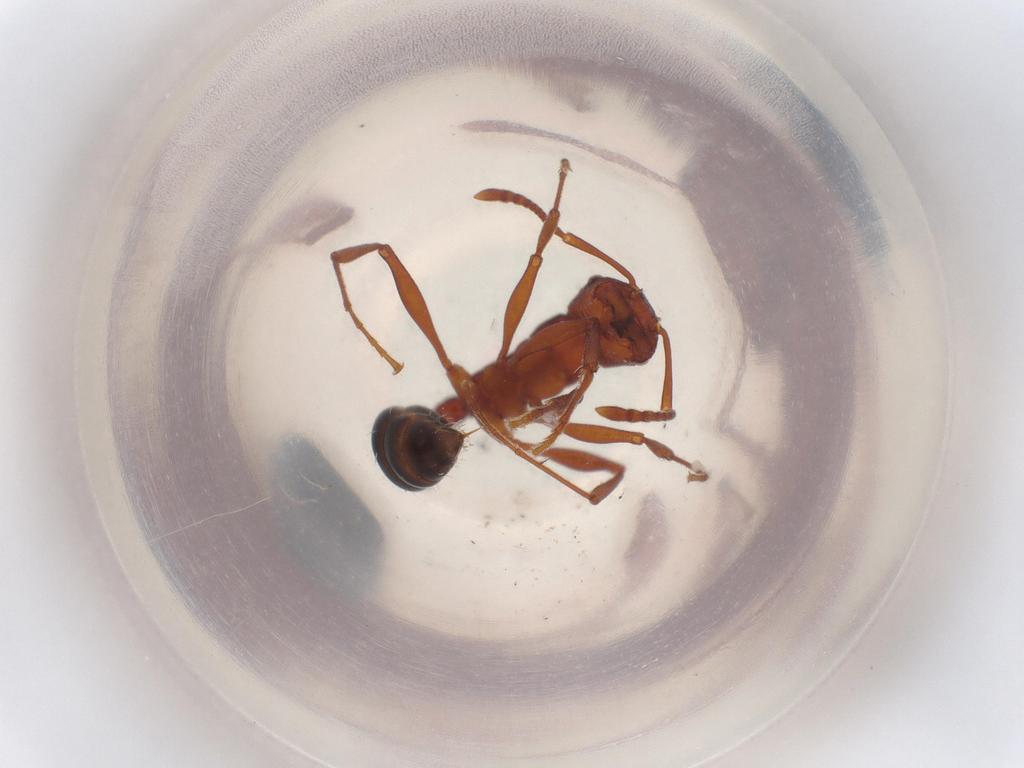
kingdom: Animalia
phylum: Arthropoda
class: Insecta
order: Hymenoptera
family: Formicidae
